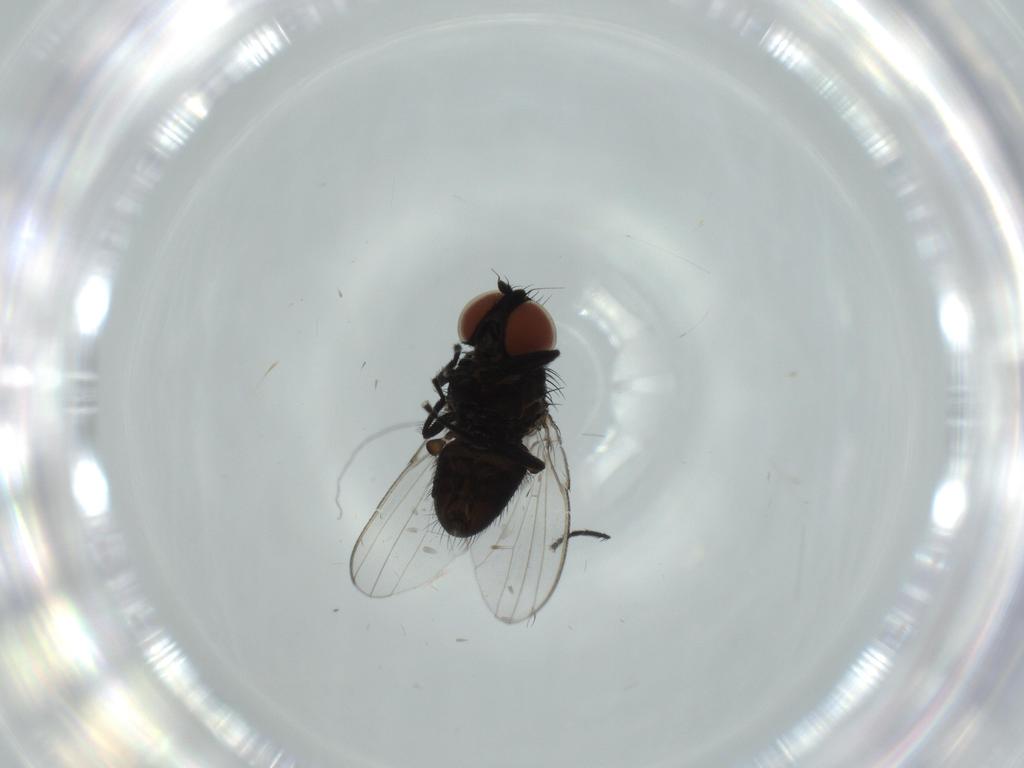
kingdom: Animalia
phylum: Arthropoda
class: Insecta
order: Diptera
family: Milichiidae
